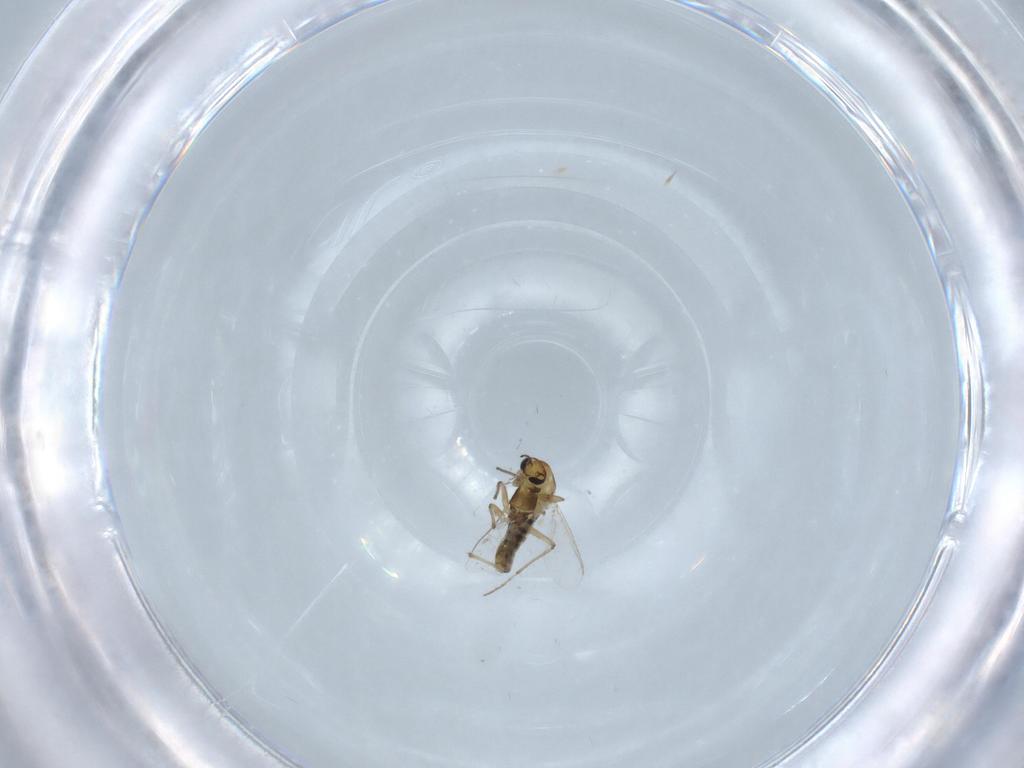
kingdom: Animalia
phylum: Arthropoda
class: Insecta
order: Diptera
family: Chironomidae
